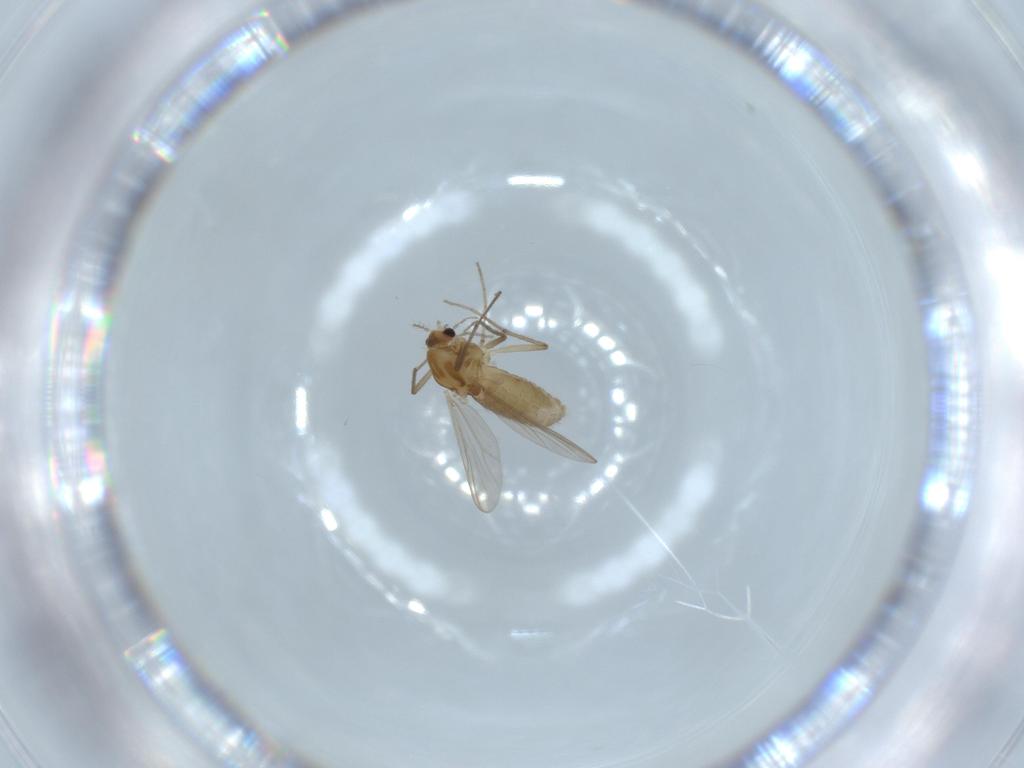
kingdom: Animalia
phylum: Arthropoda
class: Insecta
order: Diptera
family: Chironomidae
